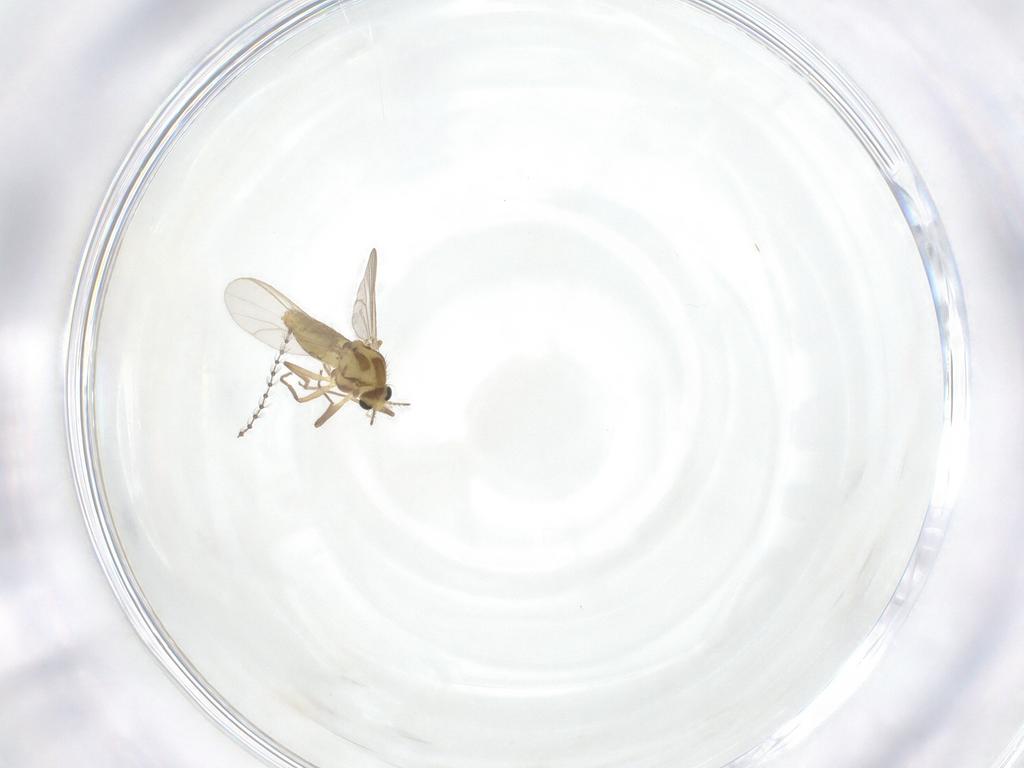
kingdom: Animalia
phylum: Arthropoda
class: Insecta
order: Diptera
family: Chironomidae
